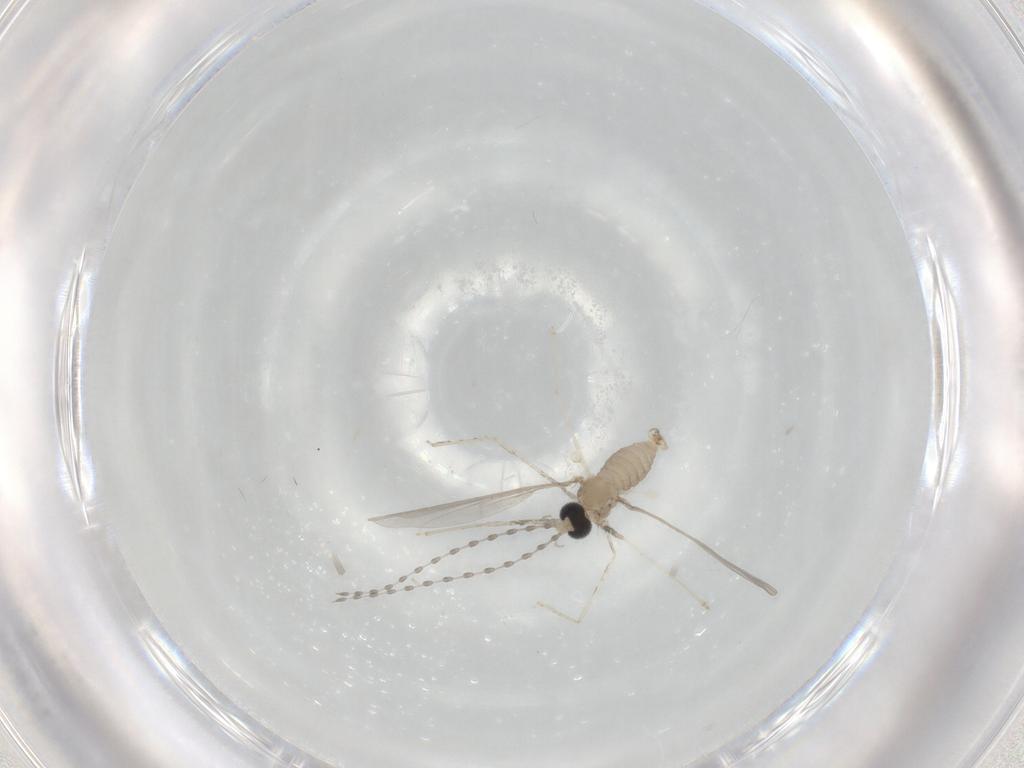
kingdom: Animalia
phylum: Arthropoda
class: Insecta
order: Diptera
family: Cecidomyiidae
